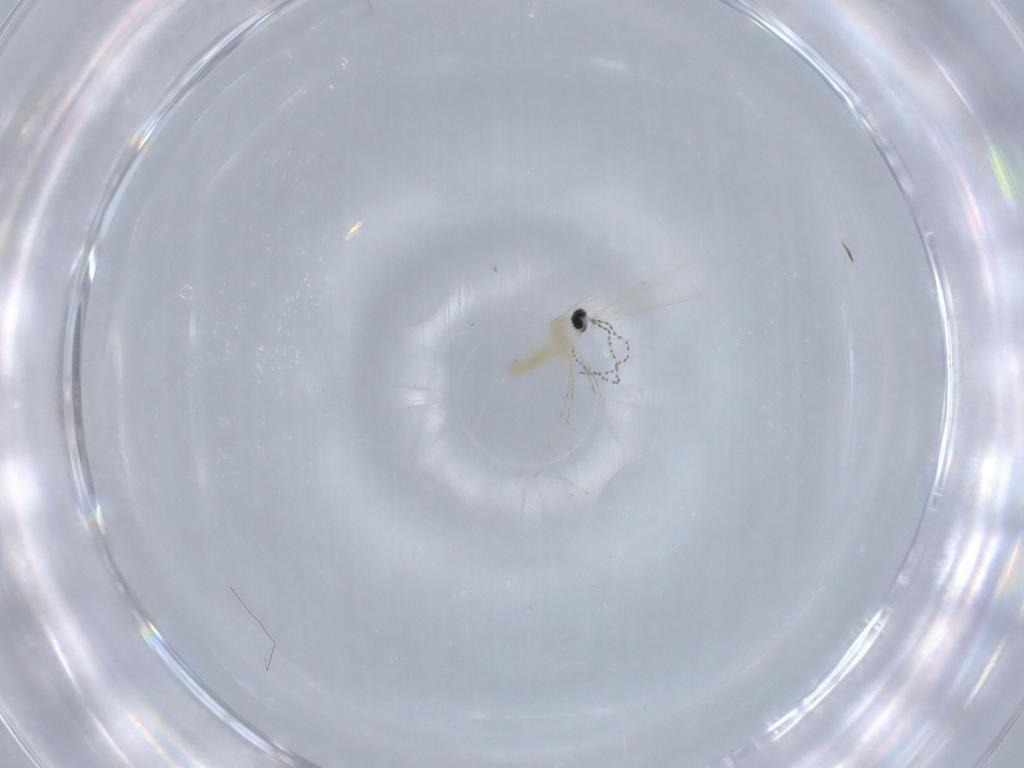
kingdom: Animalia
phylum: Arthropoda
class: Insecta
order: Diptera
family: Cecidomyiidae
